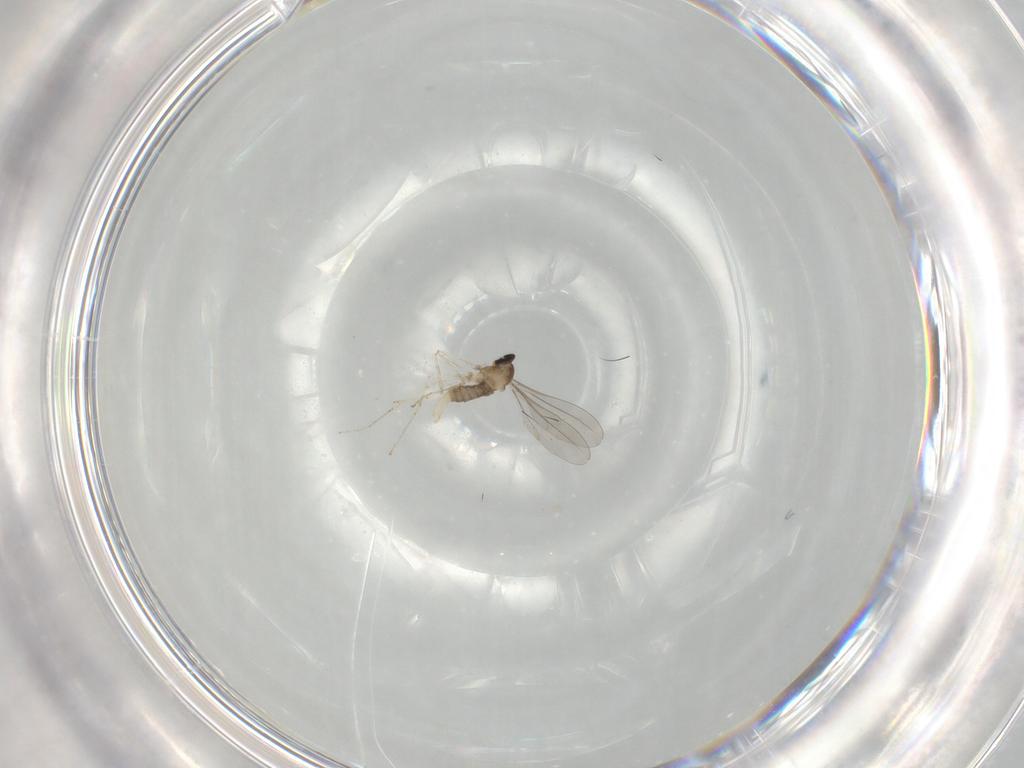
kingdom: Animalia
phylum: Arthropoda
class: Insecta
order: Diptera
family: Cecidomyiidae
